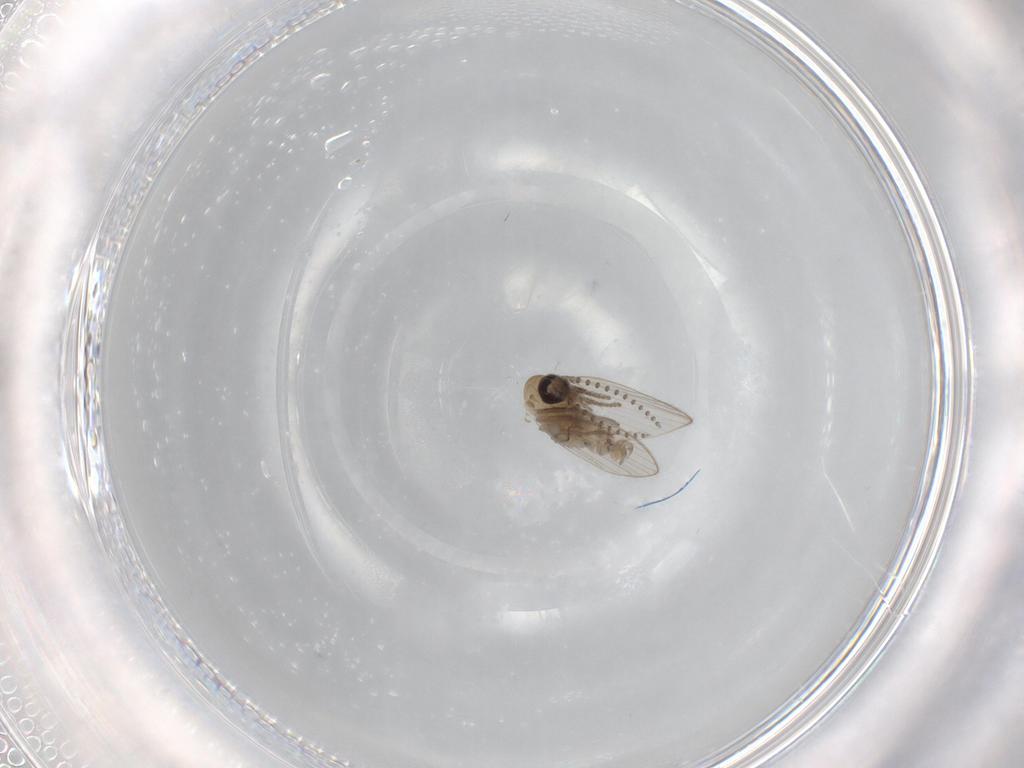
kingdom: Animalia
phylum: Arthropoda
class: Insecta
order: Diptera
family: Psychodidae
